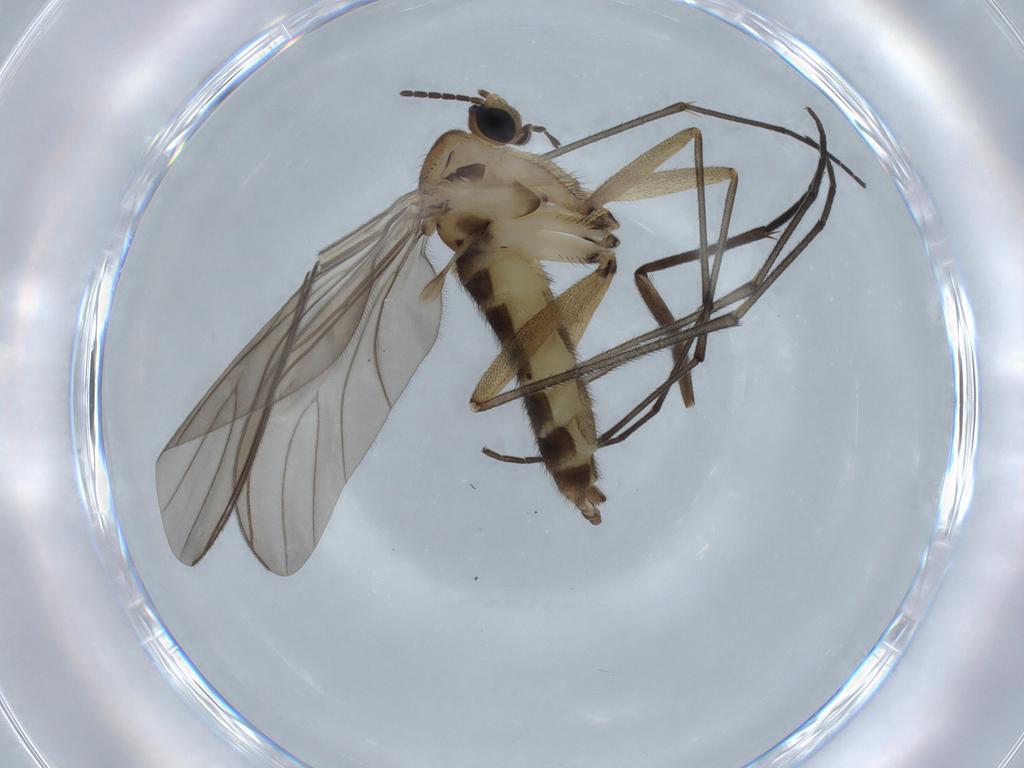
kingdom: Animalia
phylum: Arthropoda
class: Insecta
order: Diptera
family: Sciaridae
